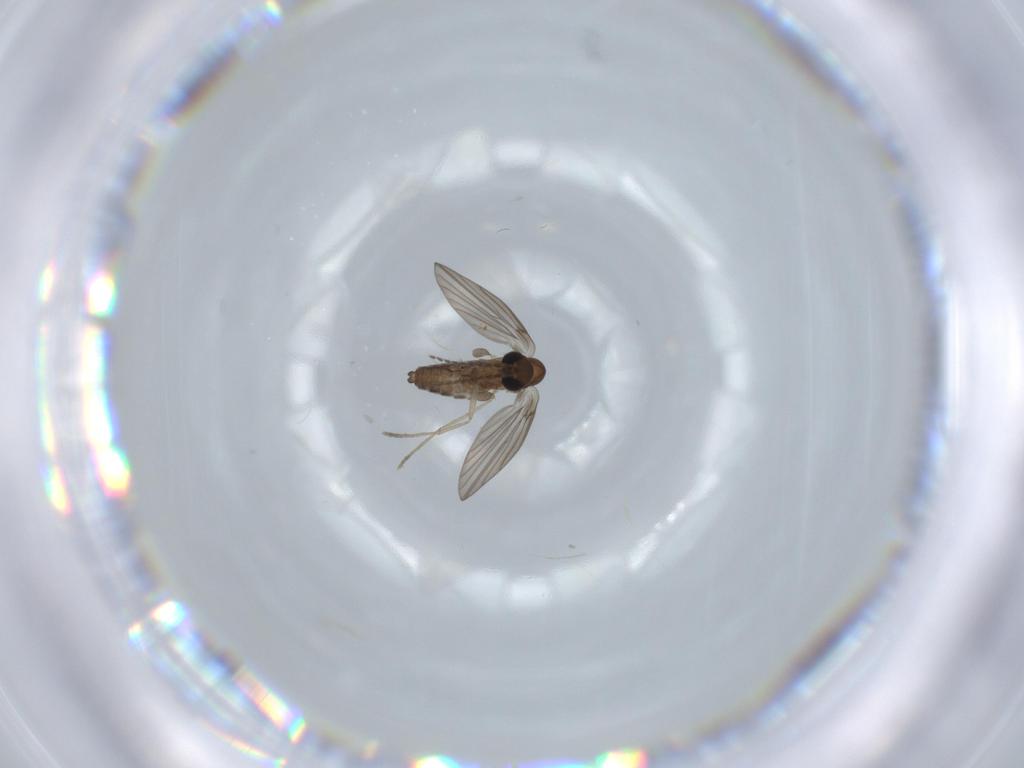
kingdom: Animalia
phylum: Arthropoda
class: Insecta
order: Diptera
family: Psychodidae
